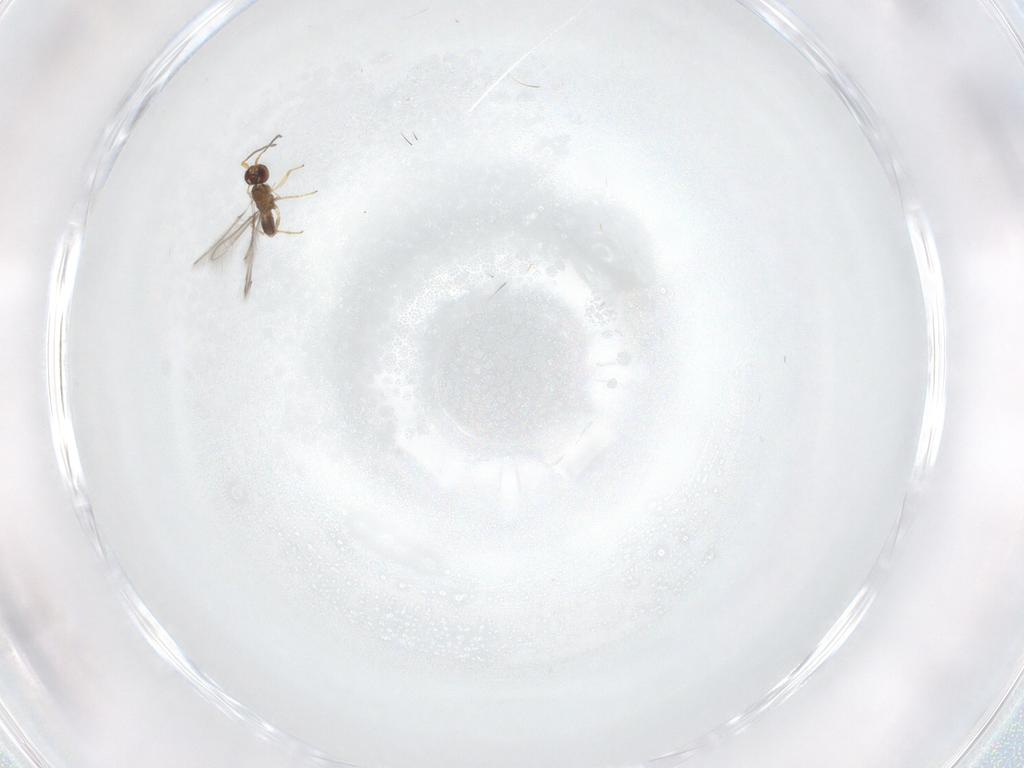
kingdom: Animalia
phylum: Arthropoda
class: Insecta
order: Hymenoptera
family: Mymaridae
